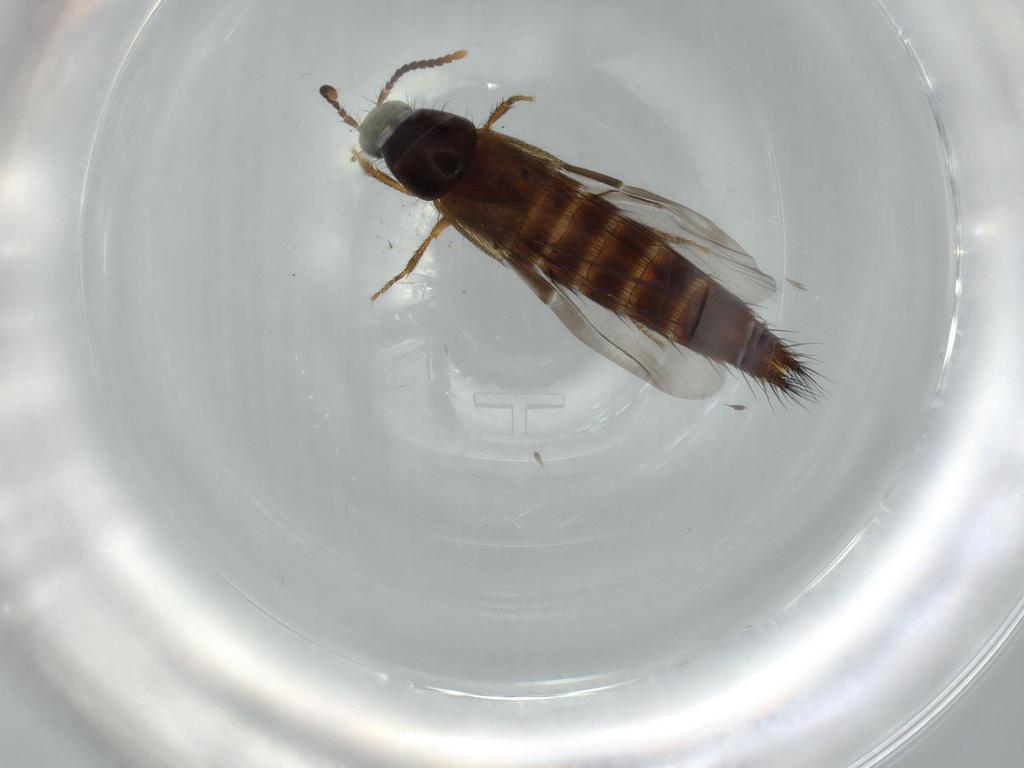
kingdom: Animalia
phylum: Arthropoda
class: Insecta
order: Coleoptera
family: Staphylinidae
